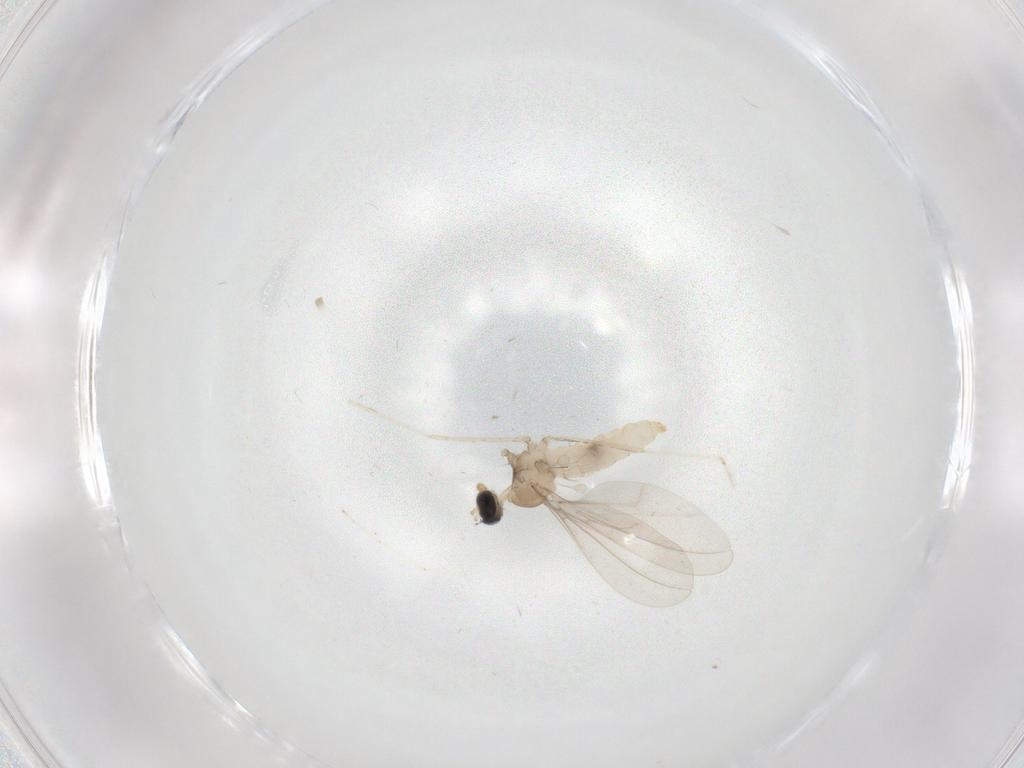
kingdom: Animalia
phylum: Arthropoda
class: Insecta
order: Diptera
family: Cecidomyiidae
